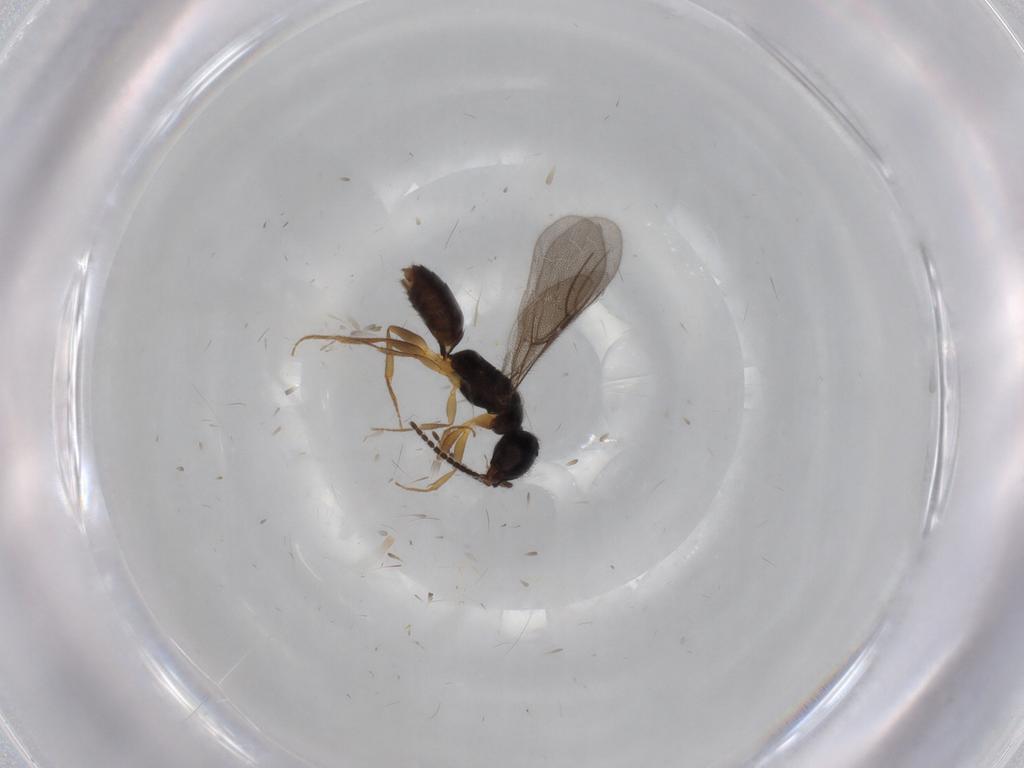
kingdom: Animalia
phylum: Arthropoda
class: Insecta
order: Hymenoptera
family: Bethylidae
